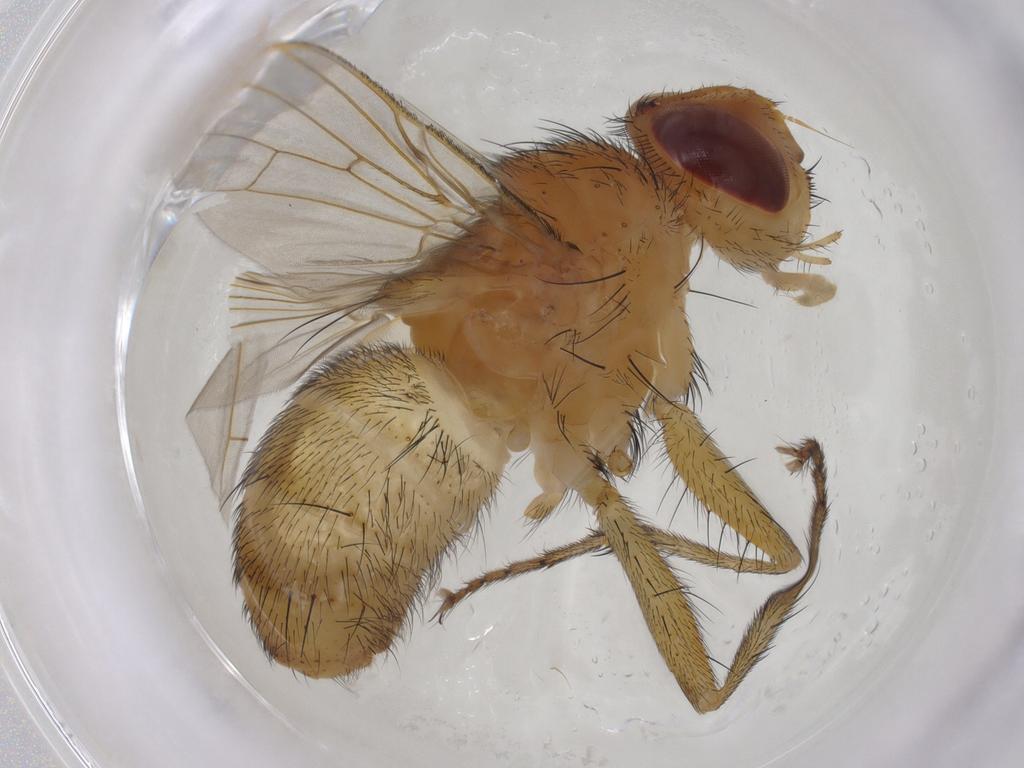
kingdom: Animalia
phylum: Arthropoda
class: Insecta
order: Diptera
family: Tachinidae
